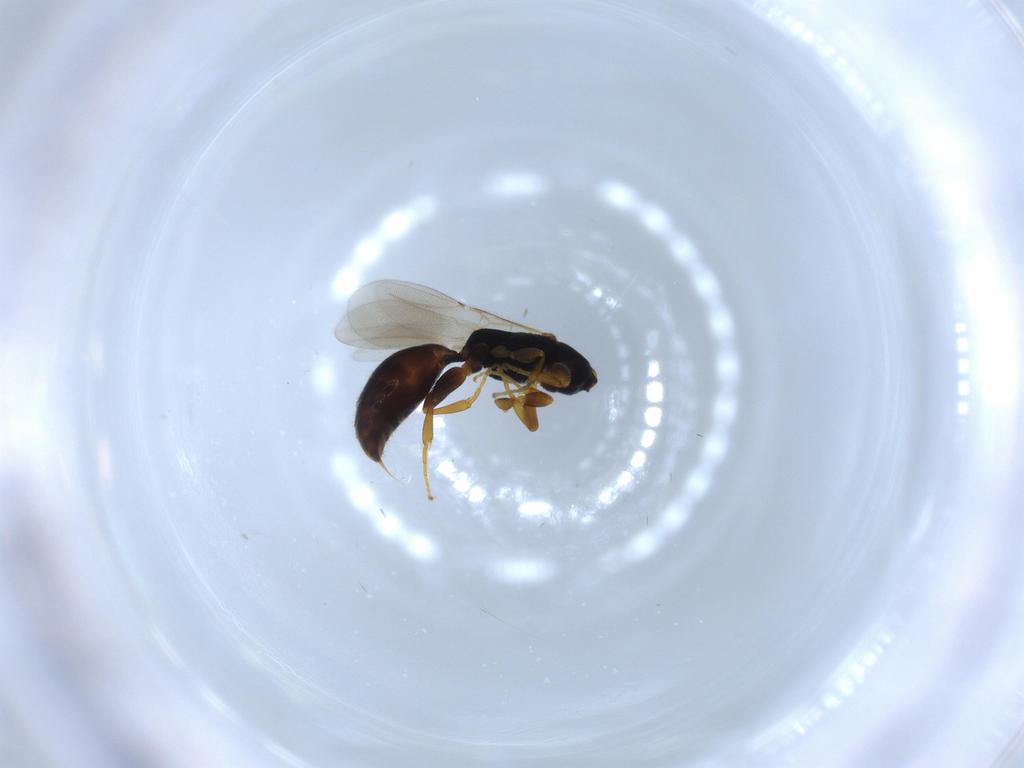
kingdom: Animalia
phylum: Arthropoda
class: Insecta
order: Hymenoptera
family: Bethylidae
